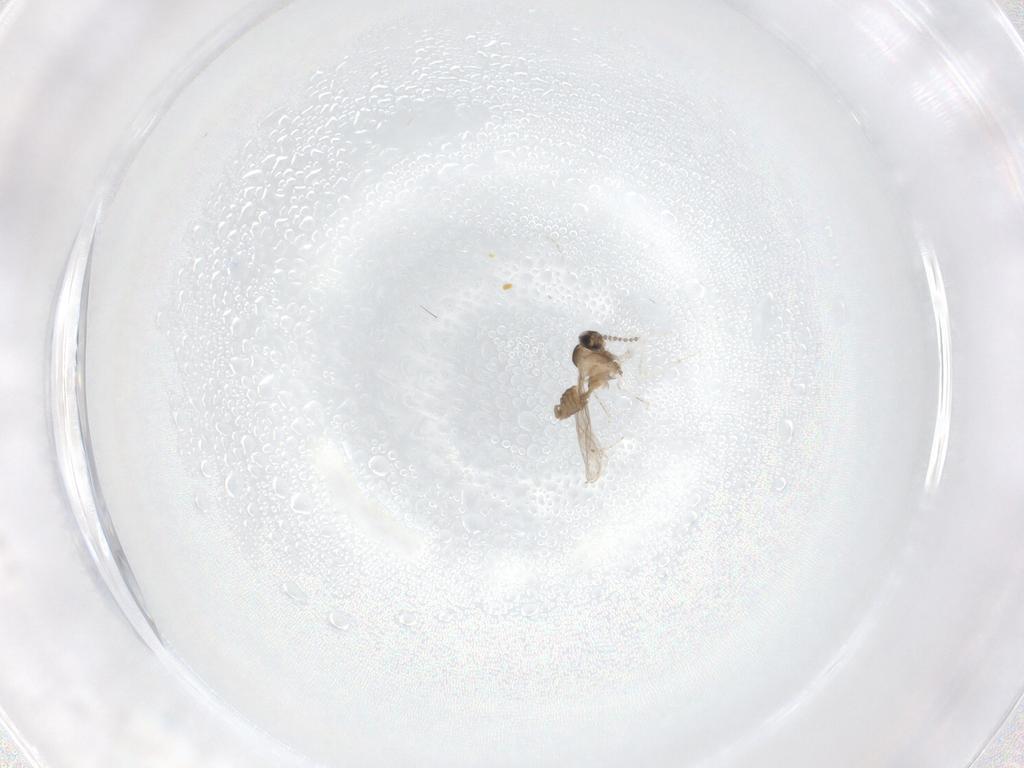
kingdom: Animalia
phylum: Arthropoda
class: Insecta
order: Diptera
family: Cecidomyiidae
